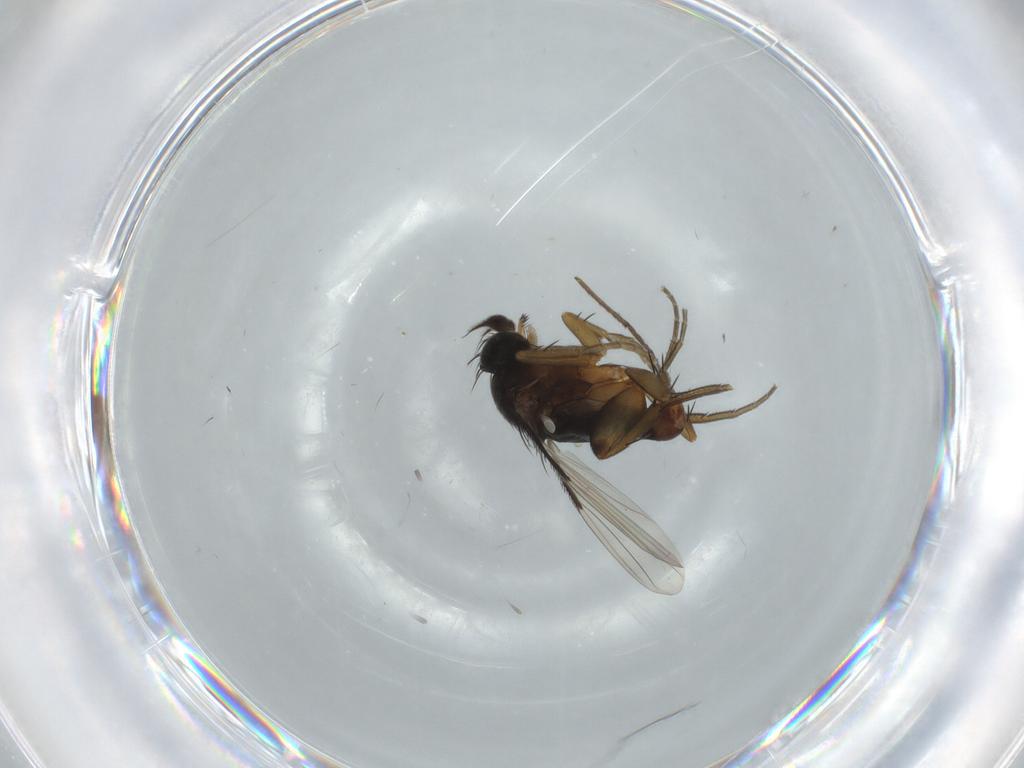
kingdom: Animalia
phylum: Arthropoda
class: Insecta
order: Diptera
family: Phoridae
